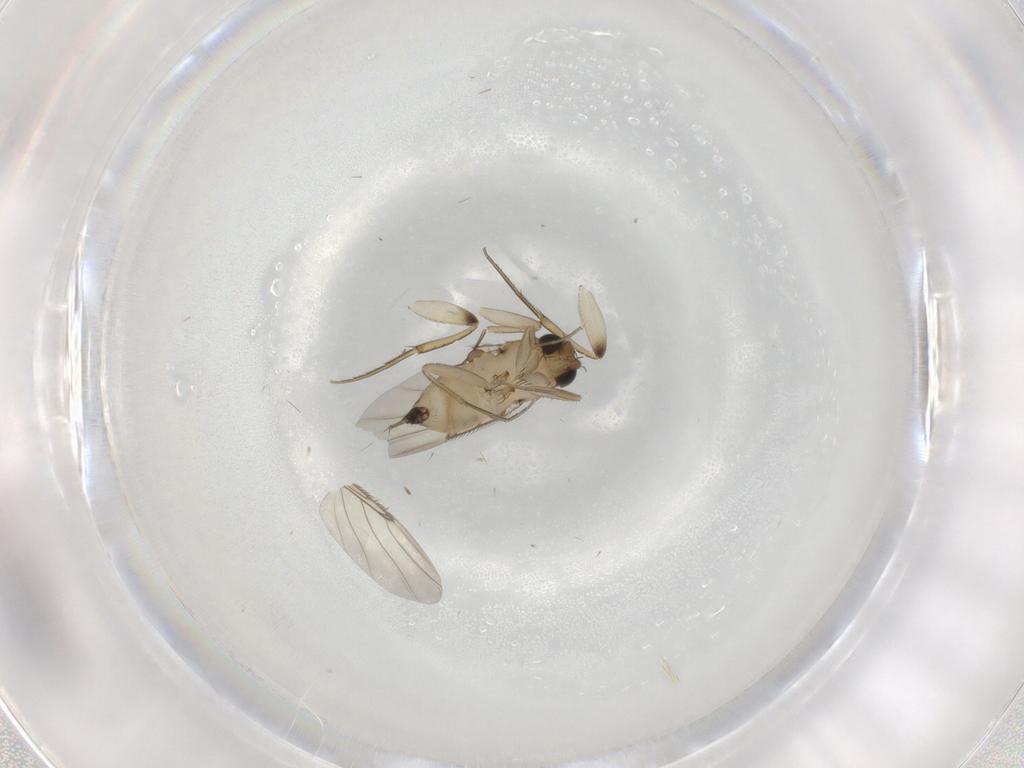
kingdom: Animalia
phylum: Arthropoda
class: Insecta
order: Diptera
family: Phoridae
